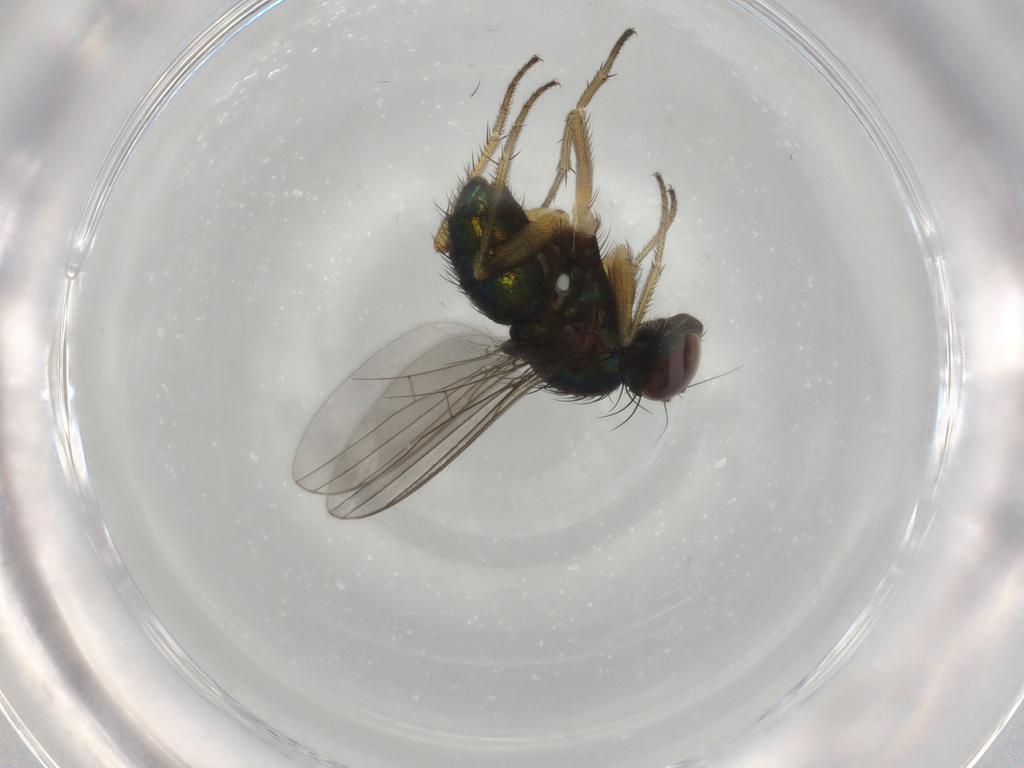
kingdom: Animalia
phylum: Arthropoda
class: Insecta
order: Diptera
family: Dolichopodidae
